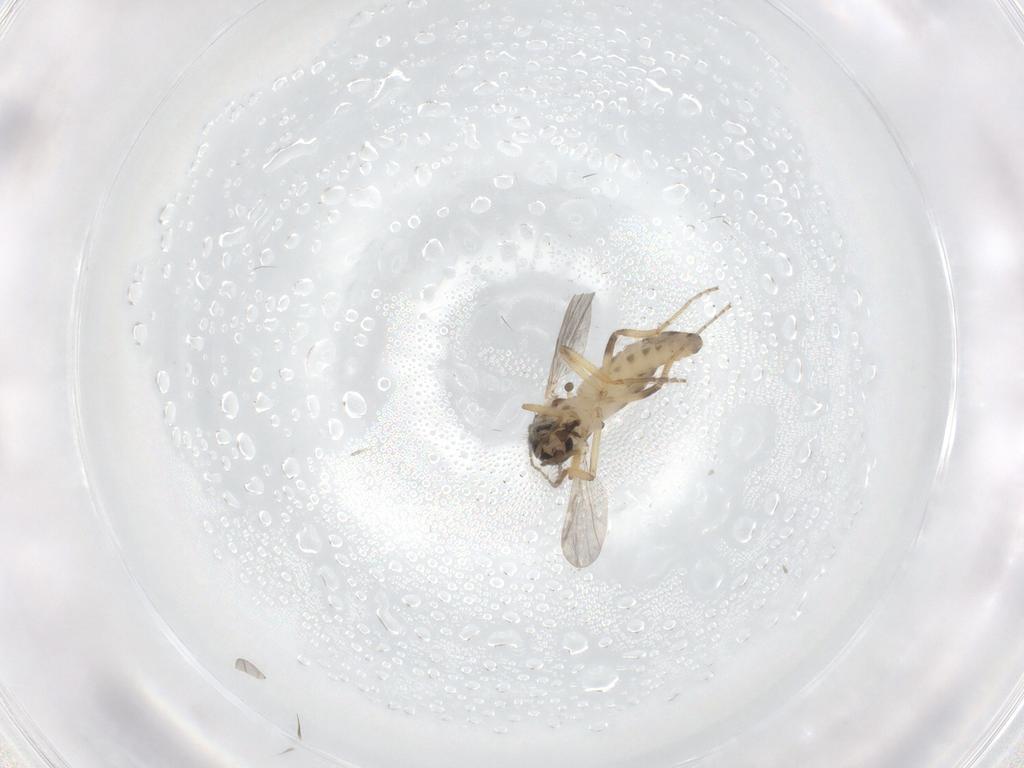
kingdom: Animalia
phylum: Arthropoda
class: Insecta
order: Diptera
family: Ceratopogonidae
